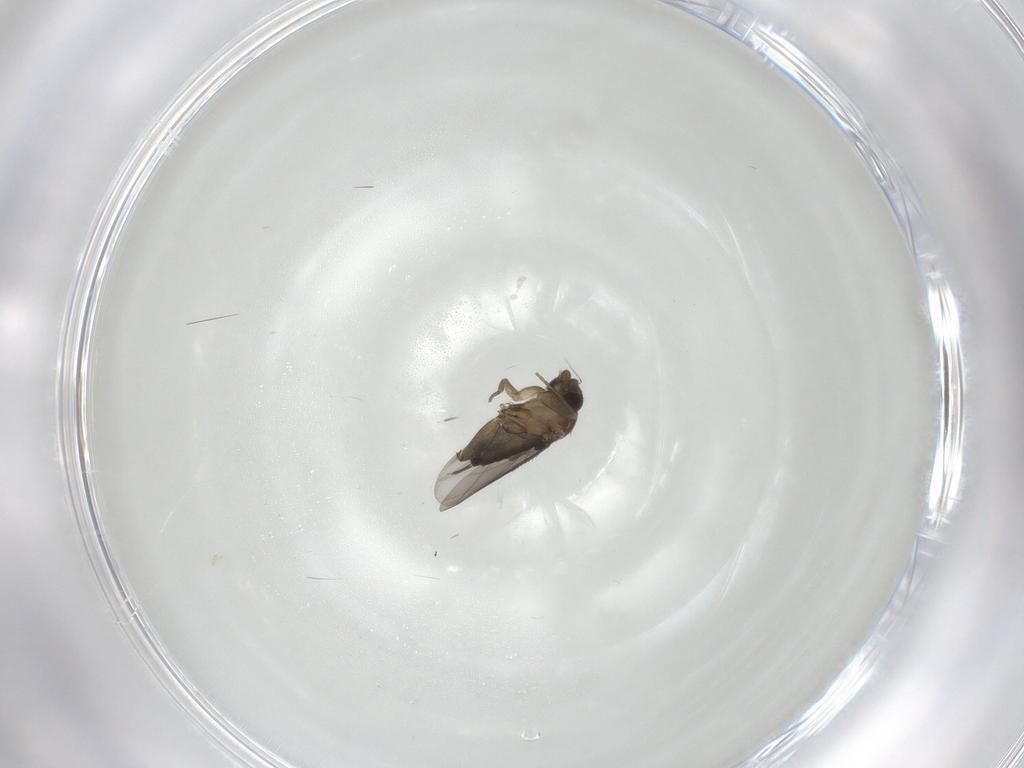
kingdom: Animalia
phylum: Arthropoda
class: Insecta
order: Diptera
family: Phoridae
